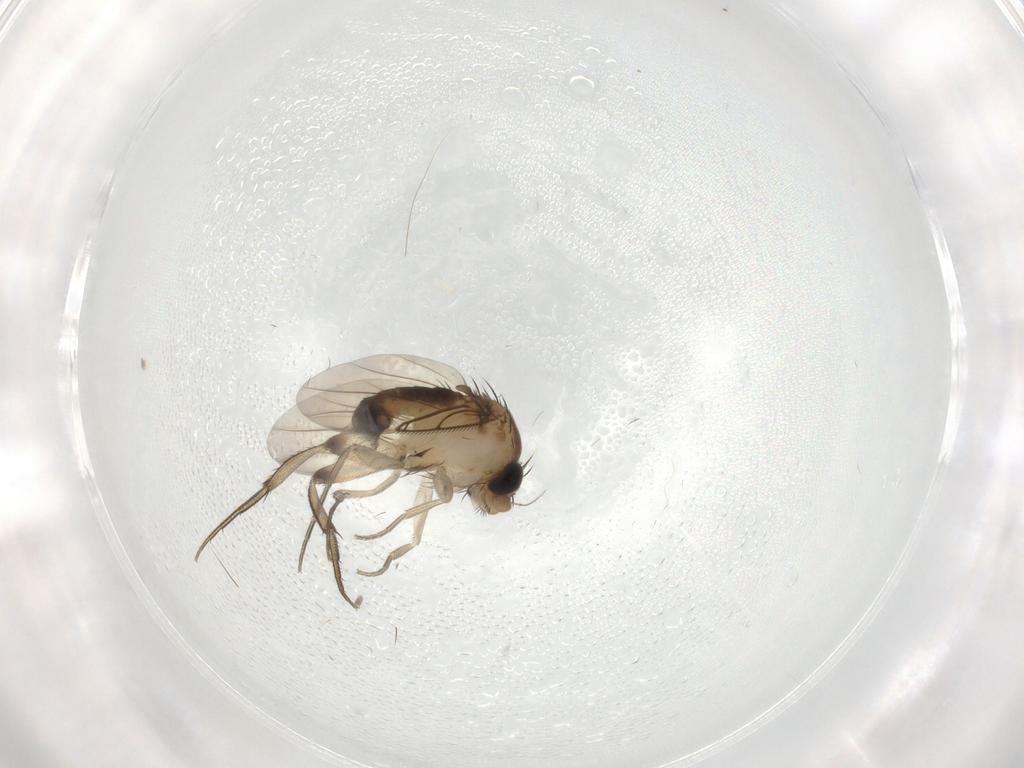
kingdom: Animalia
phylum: Arthropoda
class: Insecta
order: Diptera
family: Phoridae
